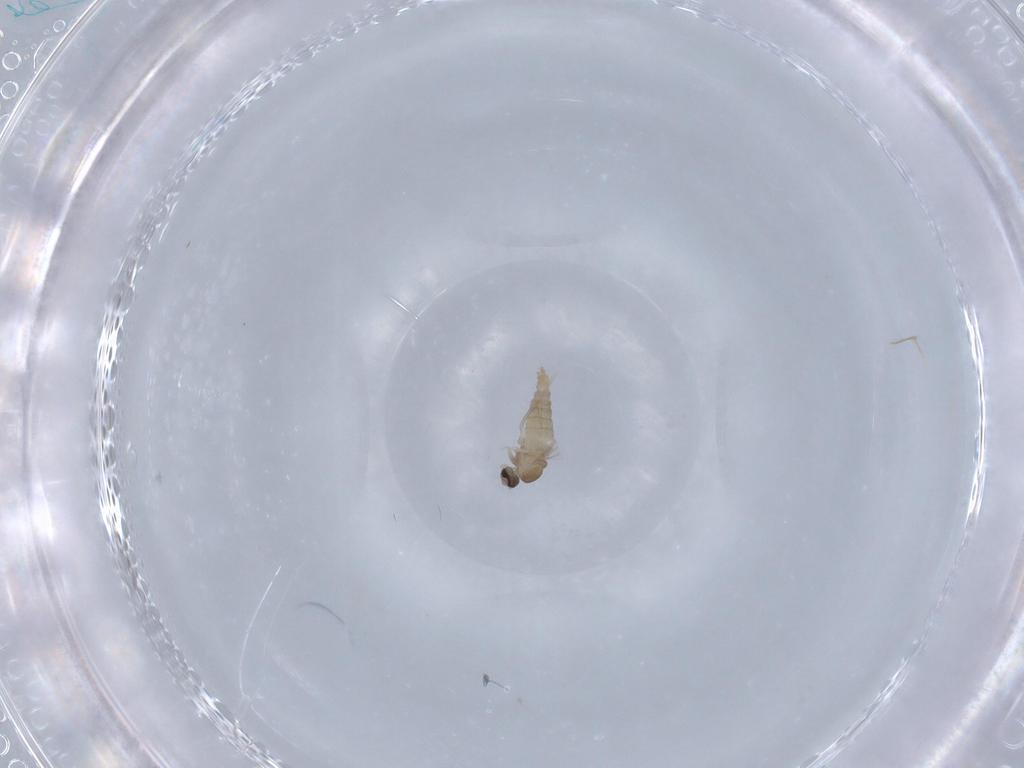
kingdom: Animalia
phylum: Arthropoda
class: Insecta
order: Diptera
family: Cecidomyiidae
